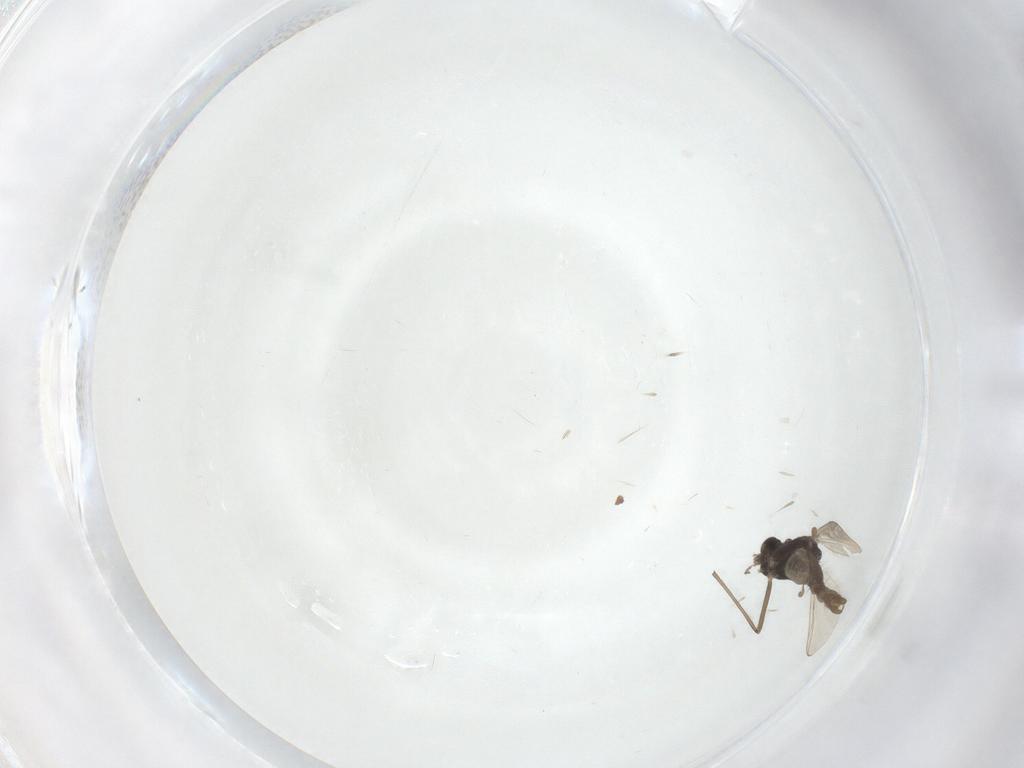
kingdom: Animalia
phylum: Arthropoda
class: Insecta
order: Diptera
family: Chironomidae
